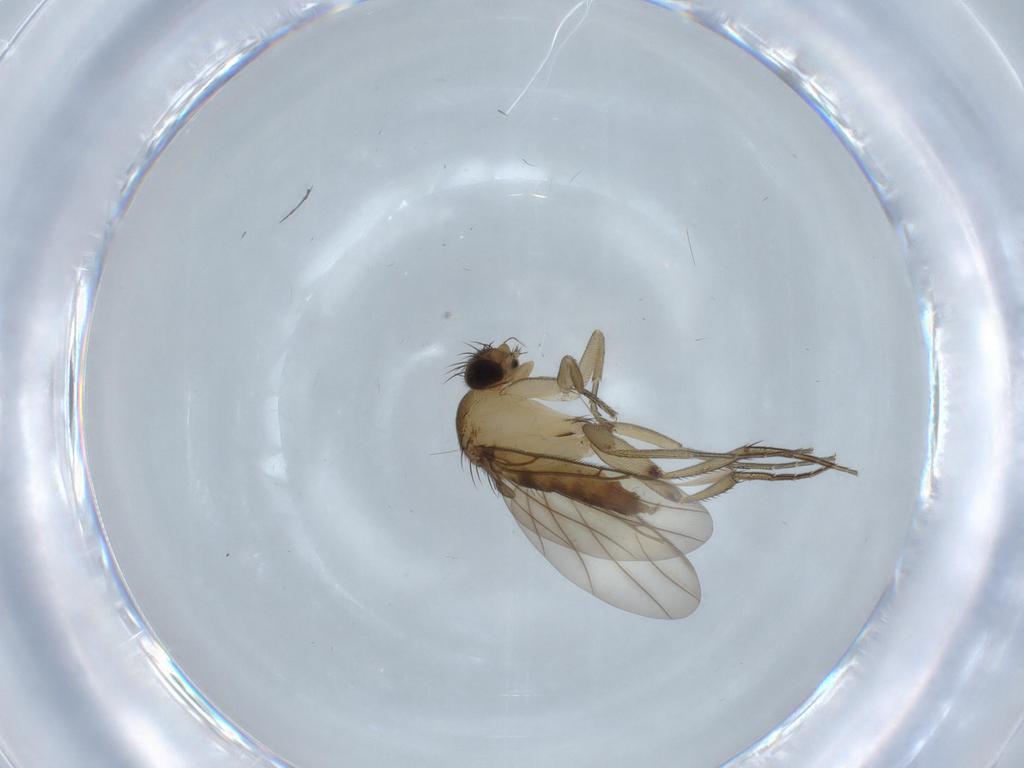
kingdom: Animalia
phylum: Arthropoda
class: Insecta
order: Diptera
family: Phoridae
